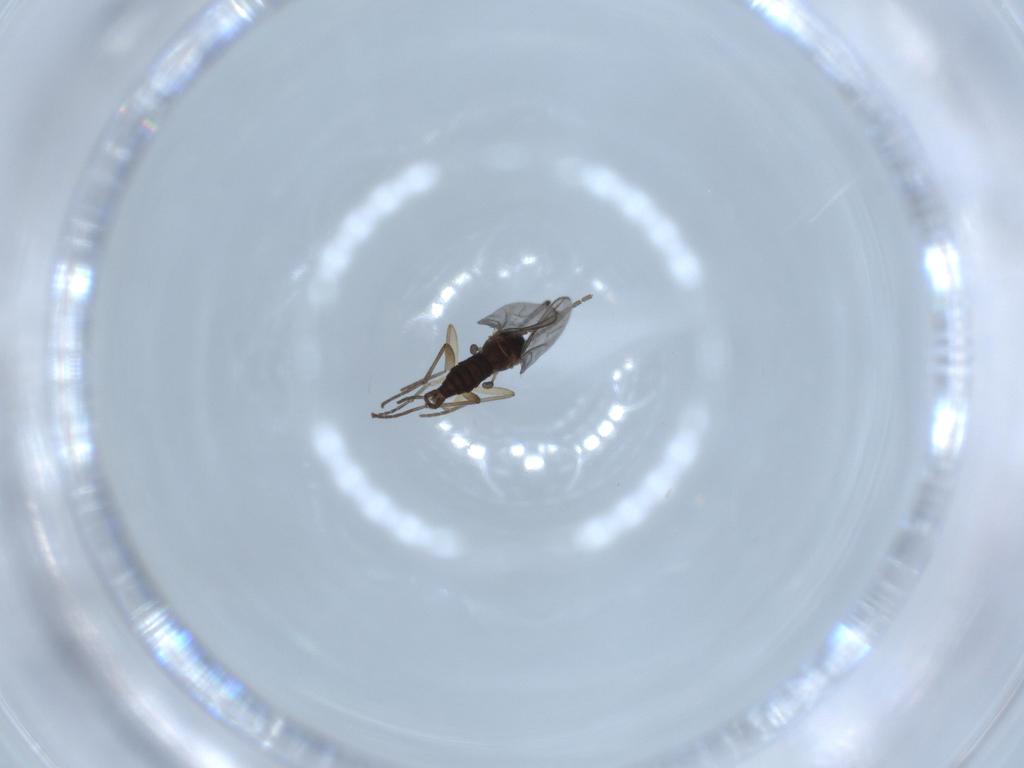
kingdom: Animalia
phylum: Arthropoda
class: Insecta
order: Diptera
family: Sciaridae
